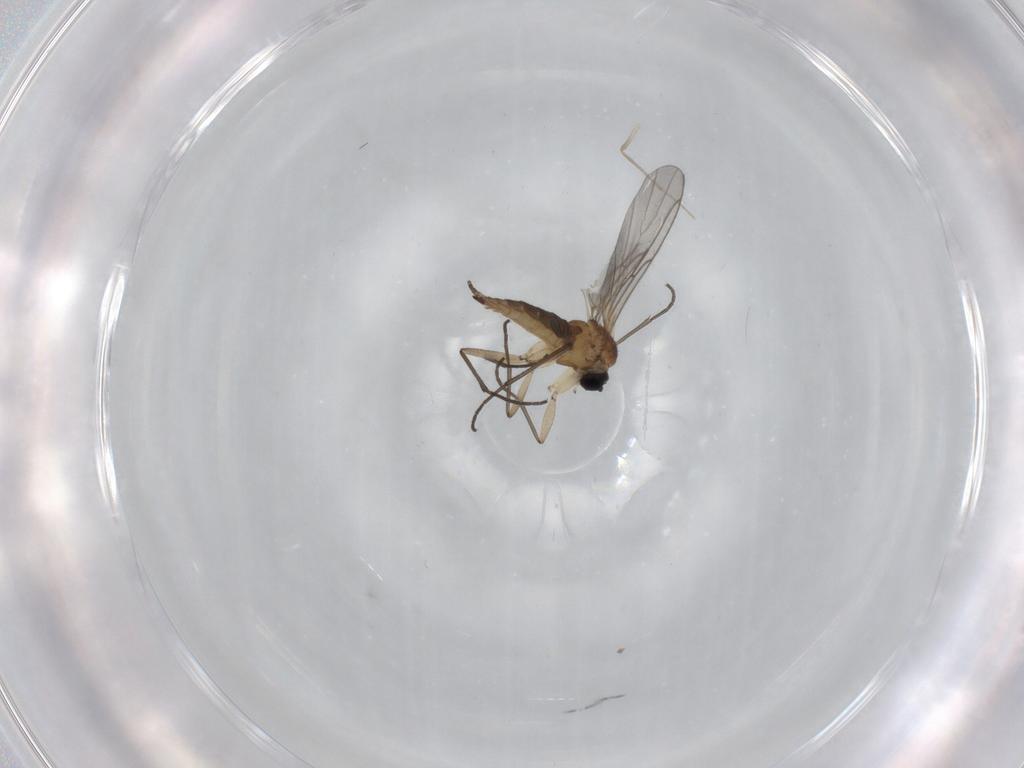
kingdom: Animalia
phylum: Arthropoda
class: Insecta
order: Diptera
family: Sciaridae
